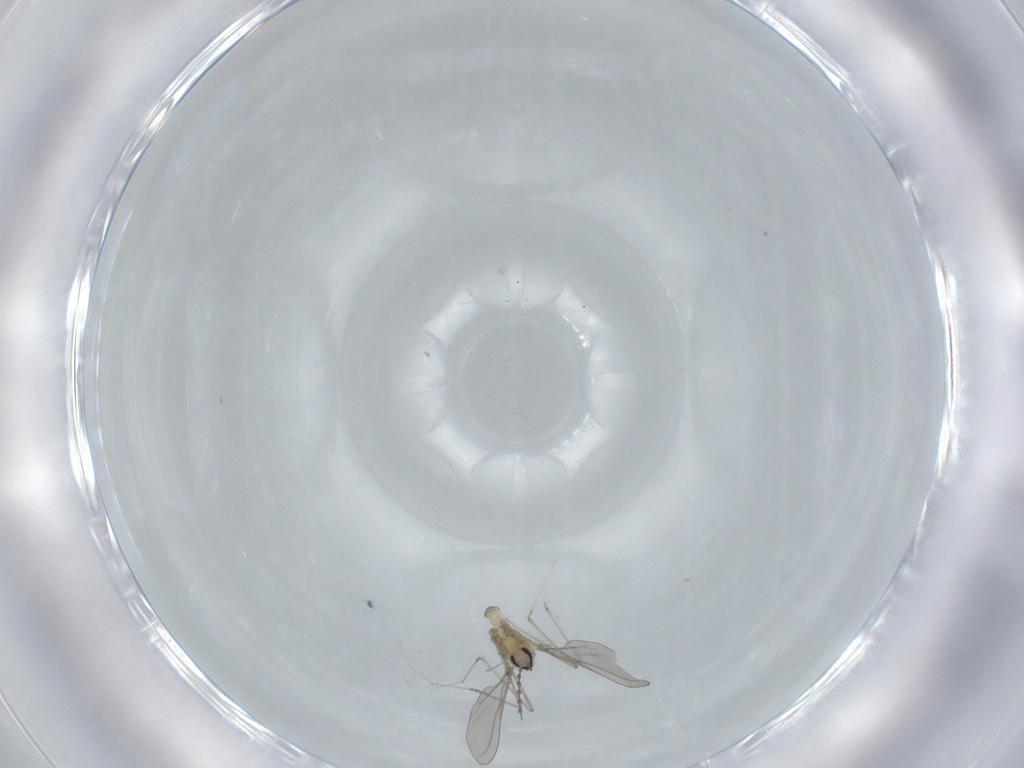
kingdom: Animalia
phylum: Arthropoda
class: Insecta
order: Diptera
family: Cecidomyiidae
